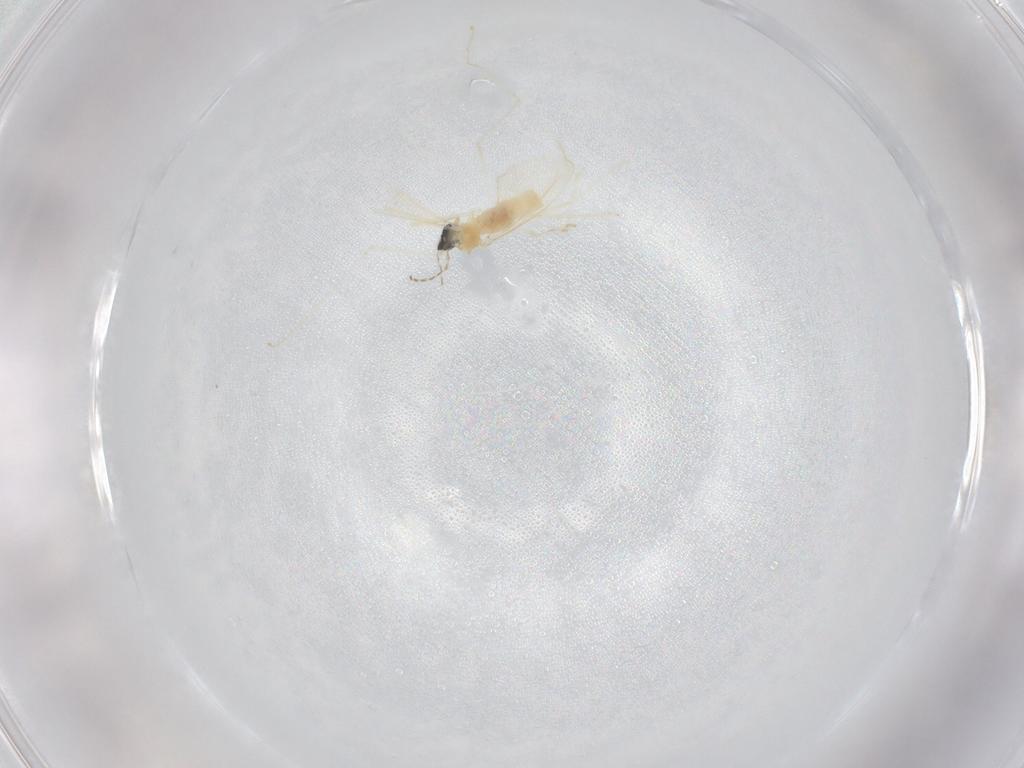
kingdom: Animalia
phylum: Arthropoda
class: Insecta
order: Diptera
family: Cecidomyiidae
